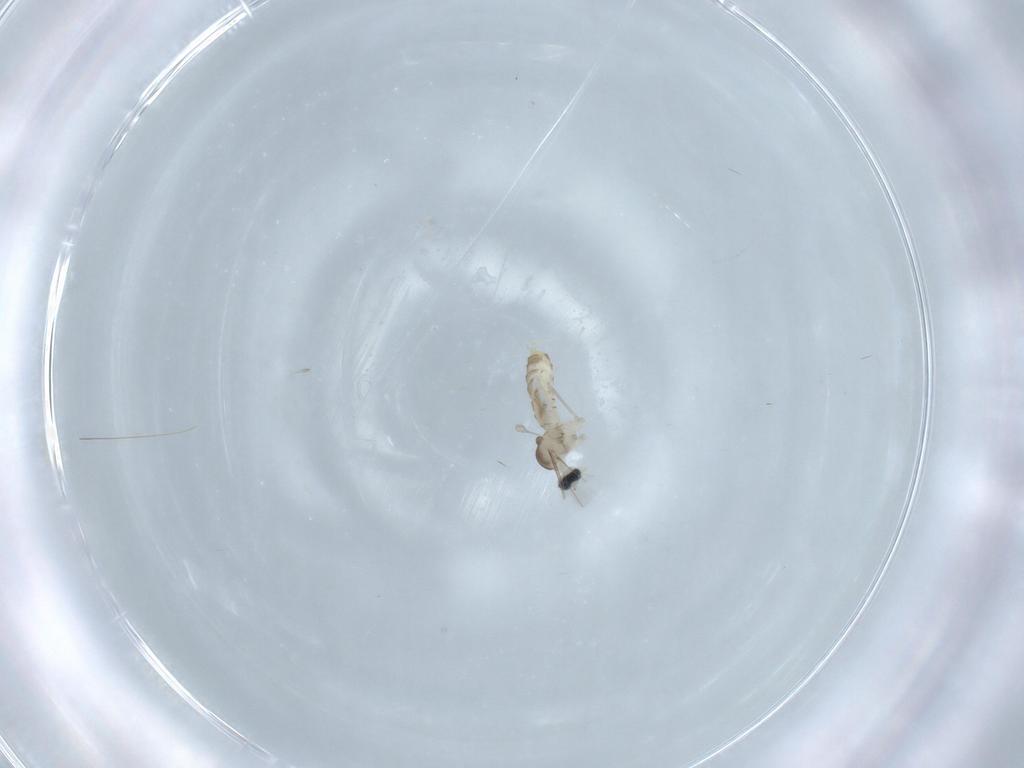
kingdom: Animalia
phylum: Arthropoda
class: Insecta
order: Diptera
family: Cecidomyiidae
